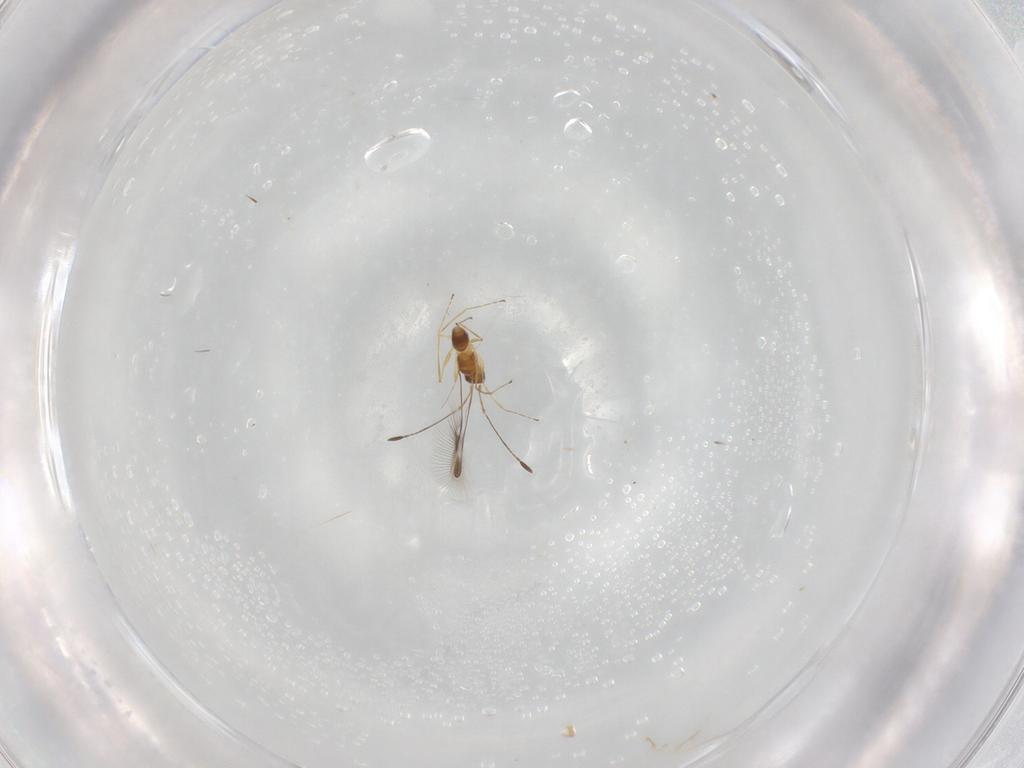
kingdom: Animalia
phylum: Arthropoda
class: Insecta
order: Hymenoptera
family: Mymaridae
